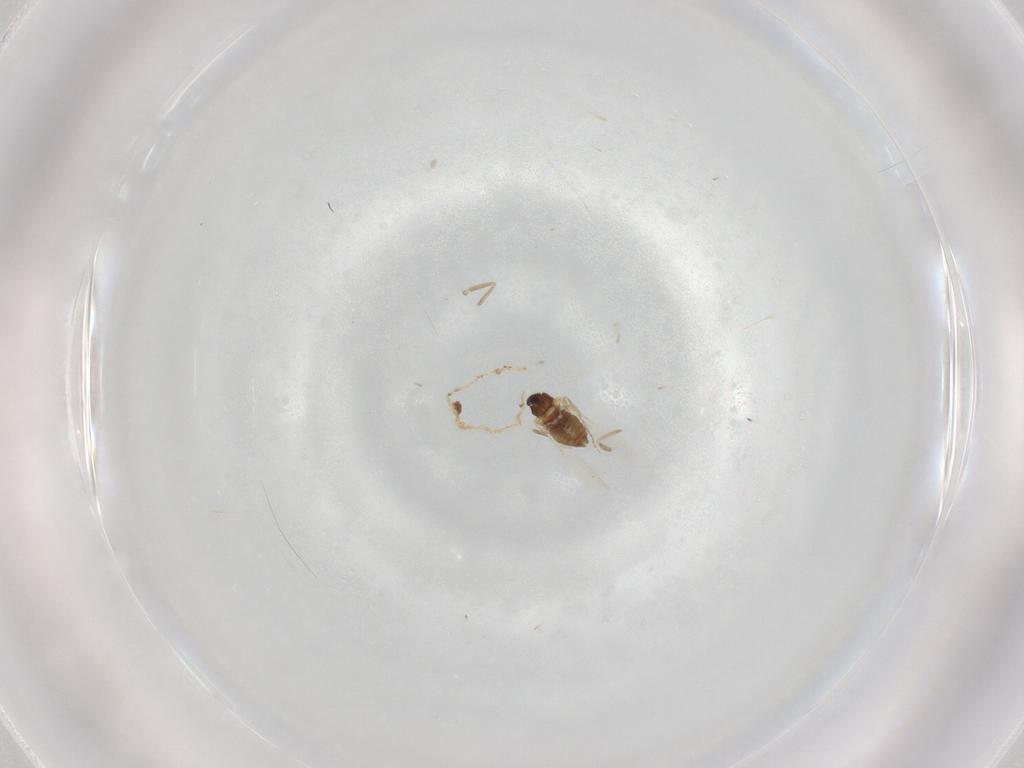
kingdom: Animalia
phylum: Arthropoda
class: Insecta
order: Diptera
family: Cecidomyiidae
